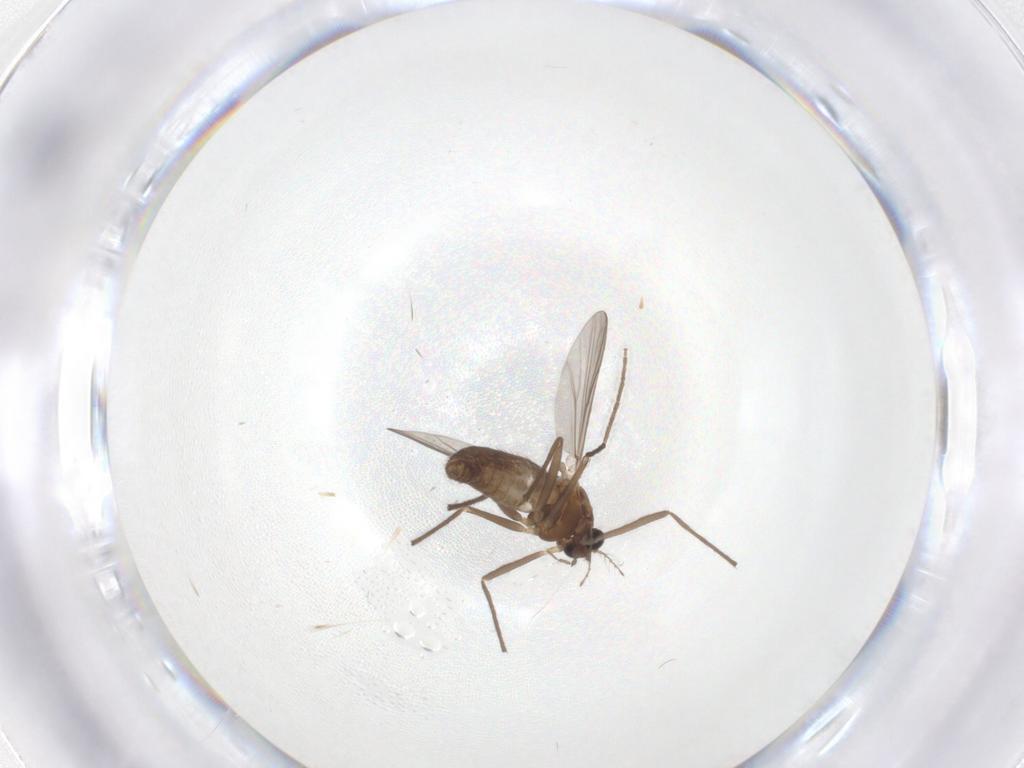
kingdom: Animalia
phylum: Arthropoda
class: Insecta
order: Diptera
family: Chironomidae
